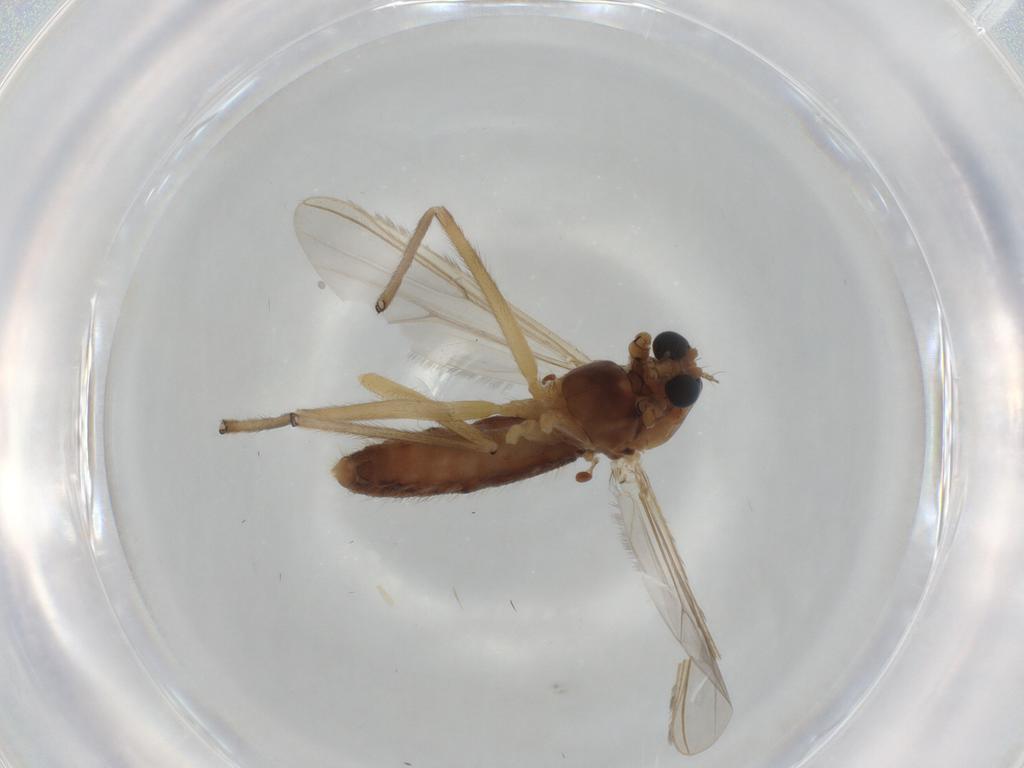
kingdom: Animalia
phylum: Arthropoda
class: Insecta
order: Diptera
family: Chironomidae
